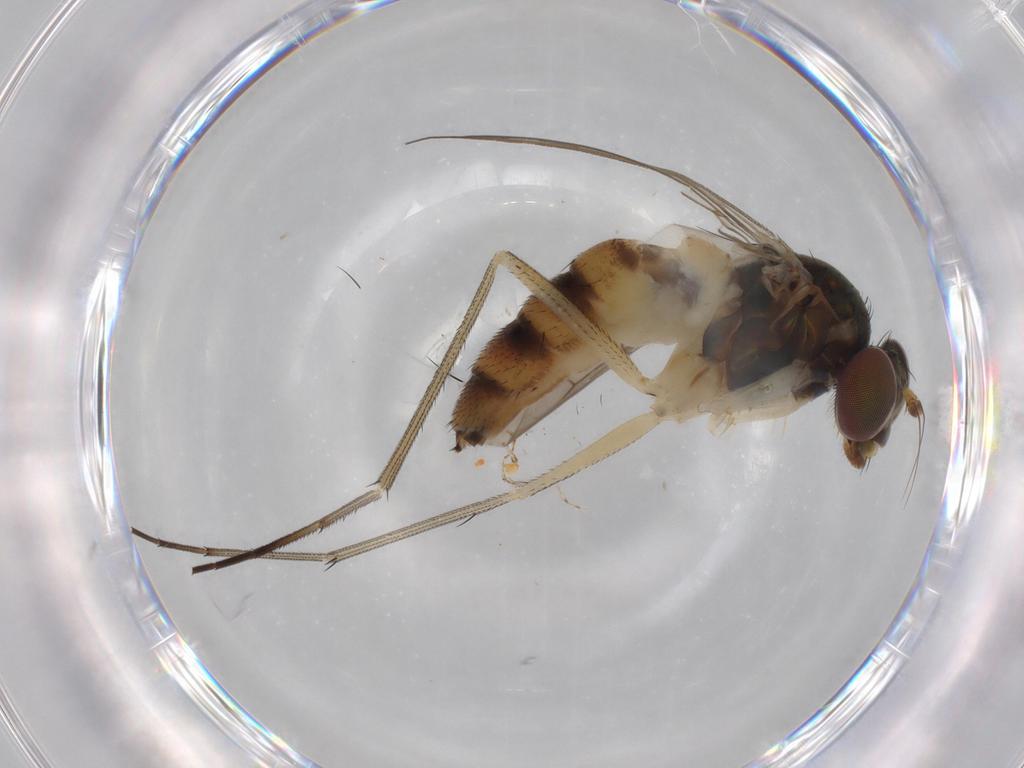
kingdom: Animalia
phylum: Arthropoda
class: Insecta
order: Diptera
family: Dolichopodidae
